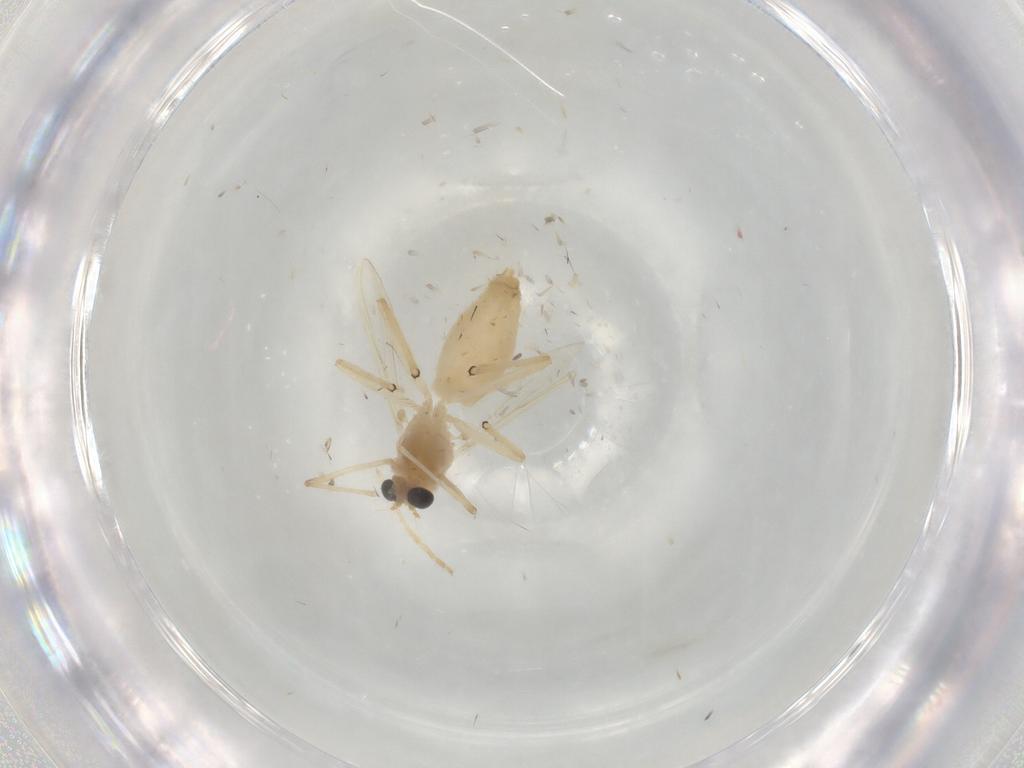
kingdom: Animalia
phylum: Arthropoda
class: Insecta
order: Diptera
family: Chironomidae
